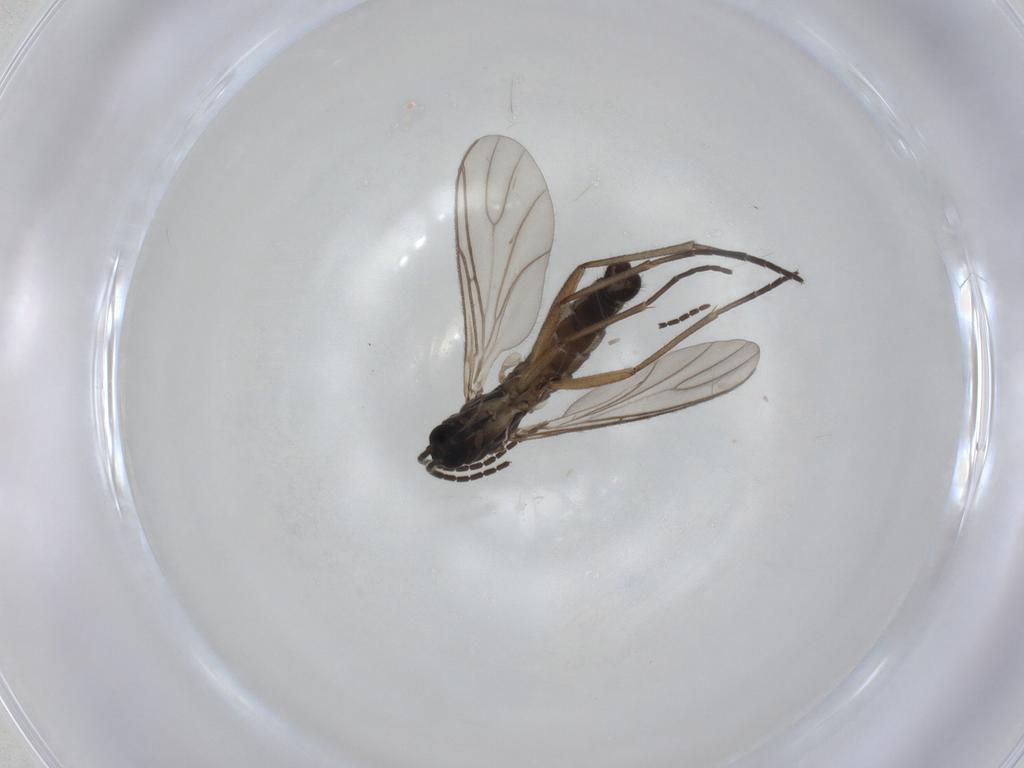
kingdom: Animalia
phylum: Arthropoda
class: Insecta
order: Diptera
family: Sciaridae
